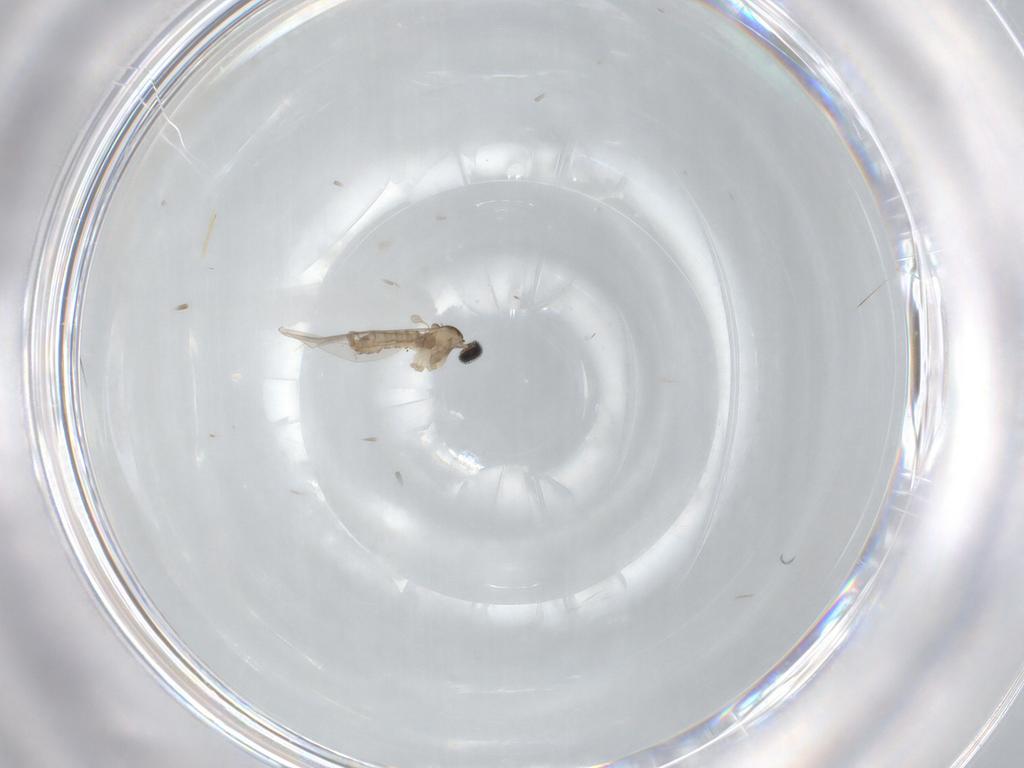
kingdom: Animalia
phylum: Arthropoda
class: Insecta
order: Diptera
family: Cecidomyiidae
